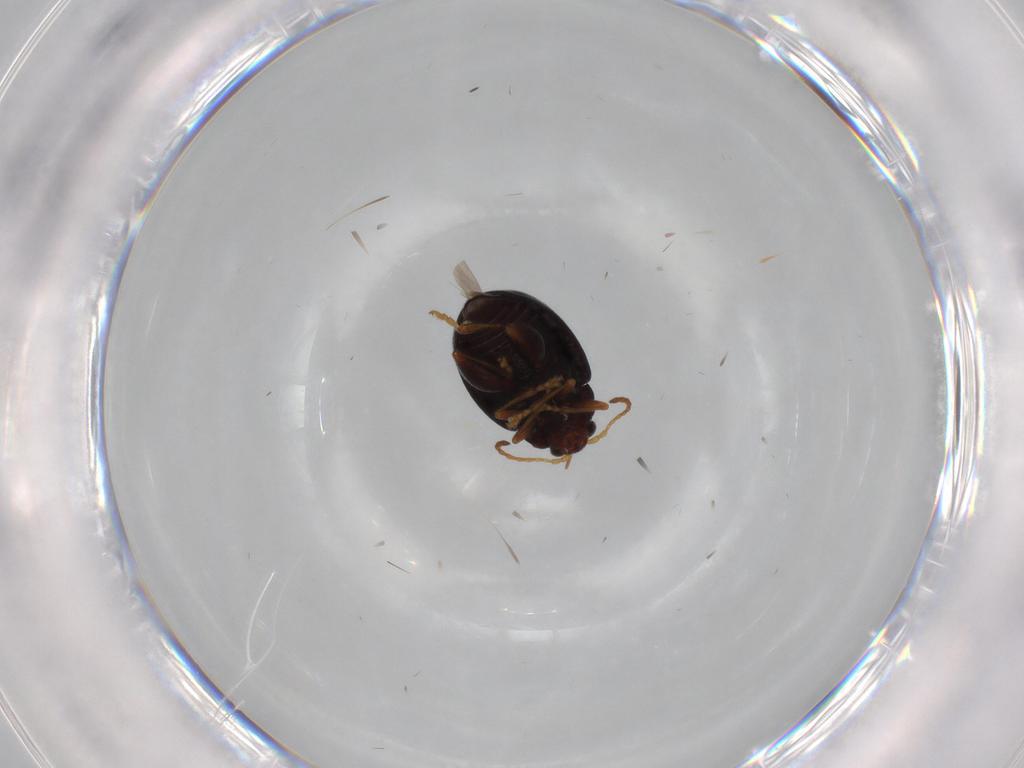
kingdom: Animalia
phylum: Arthropoda
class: Insecta
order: Coleoptera
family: Chrysomelidae
